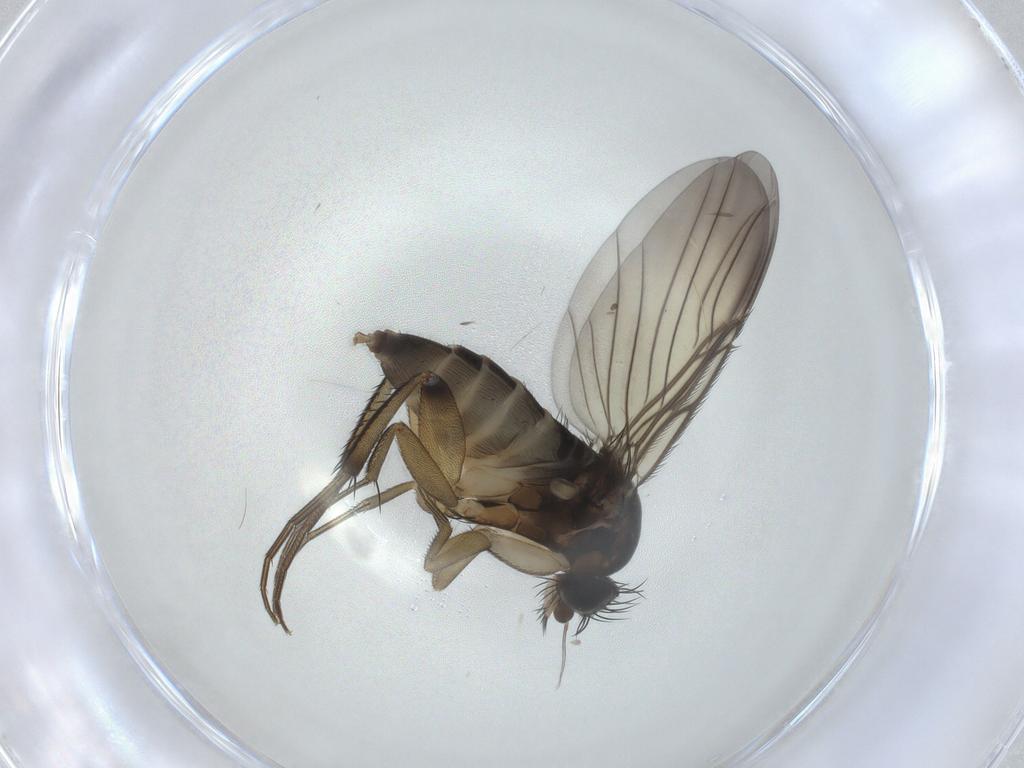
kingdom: Animalia
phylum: Arthropoda
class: Insecta
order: Diptera
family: Phoridae
